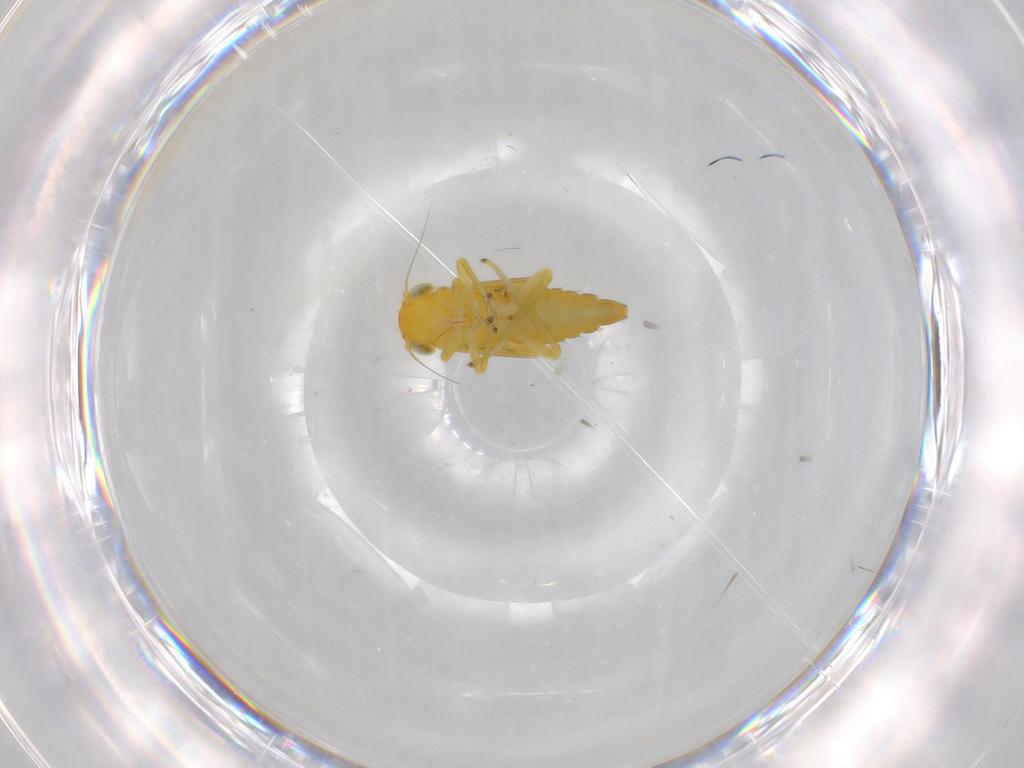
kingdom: Animalia
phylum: Arthropoda
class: Insecta
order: Hemiptera
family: Cicadellidae
